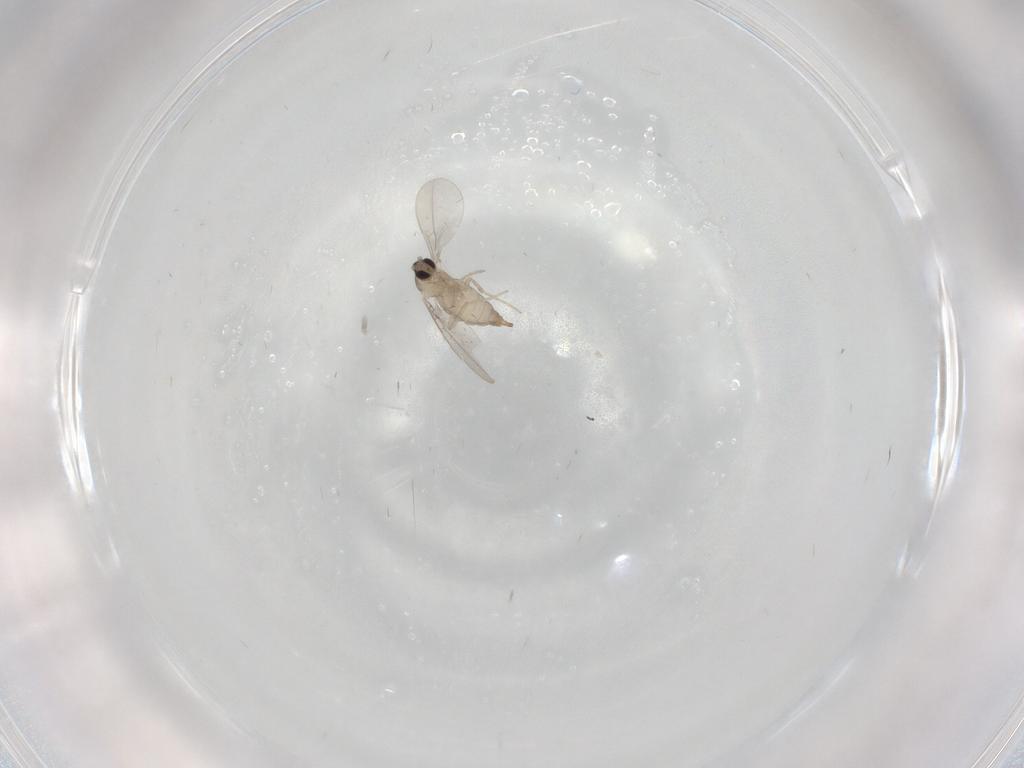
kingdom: Animalia
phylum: Arthropoda
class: Insecta
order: Diptera
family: Cecidomyiidae
